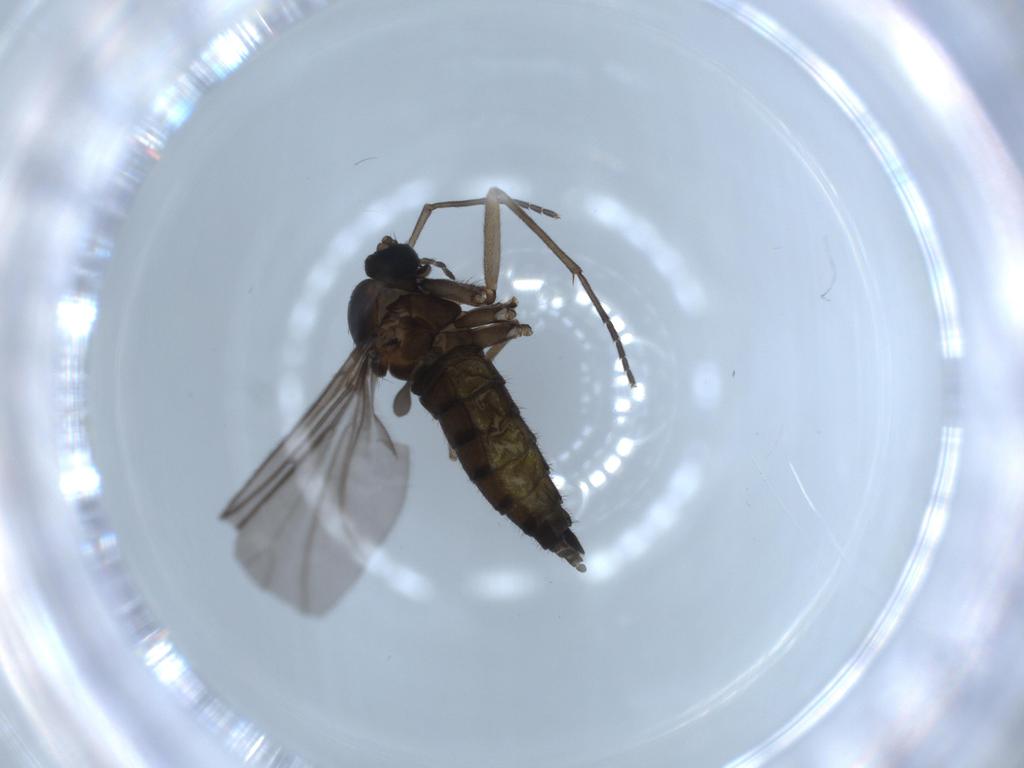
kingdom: Animalia
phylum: Arthropoda
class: Insecta
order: Diptera
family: Sciaridae
